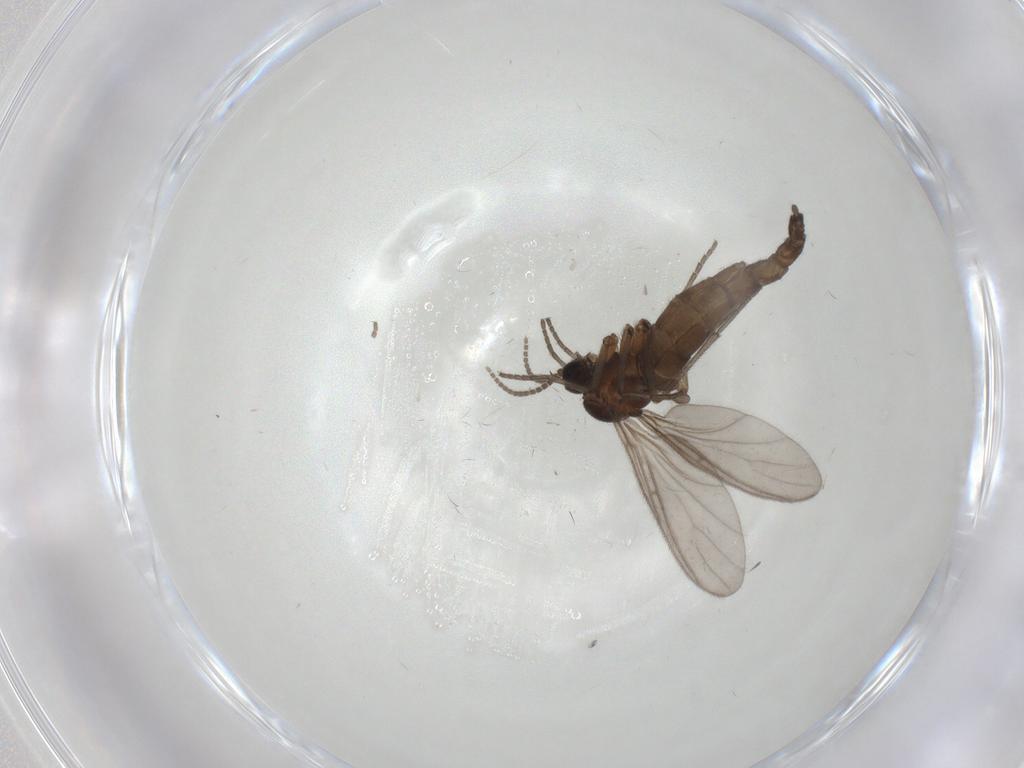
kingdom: Animalia
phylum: Arthropoda
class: Insecta
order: Diptera
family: Sciaridae
